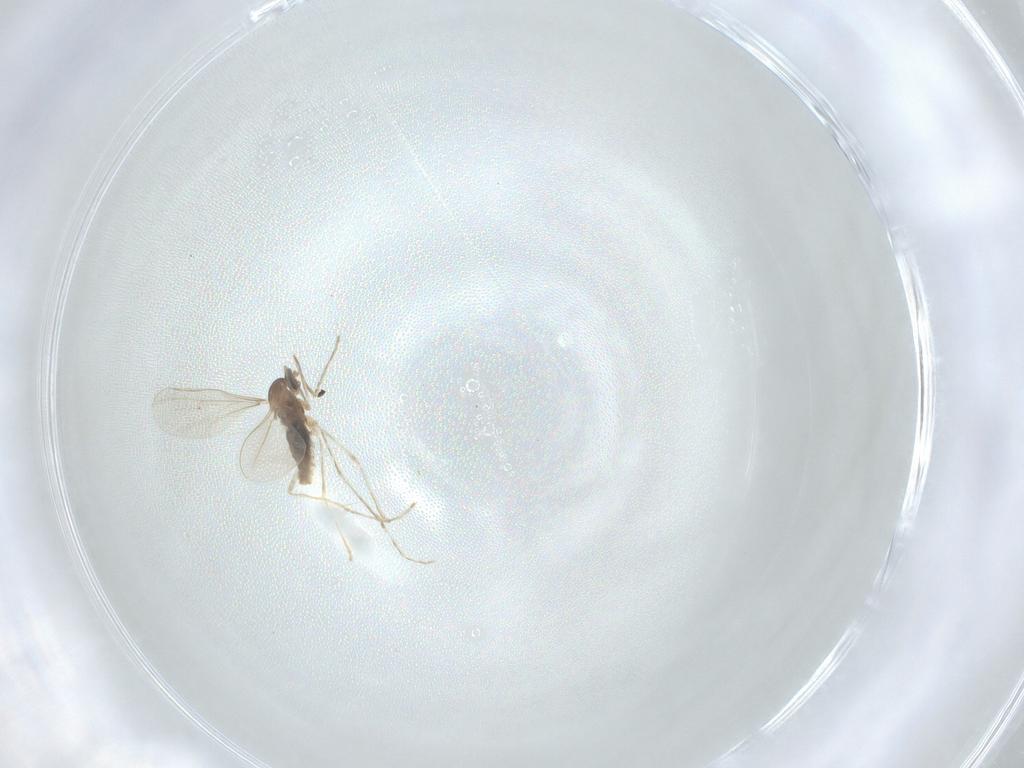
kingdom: Animalia
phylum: Arthropoda
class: Insecta
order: Diptera
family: Cecidomyiidae
